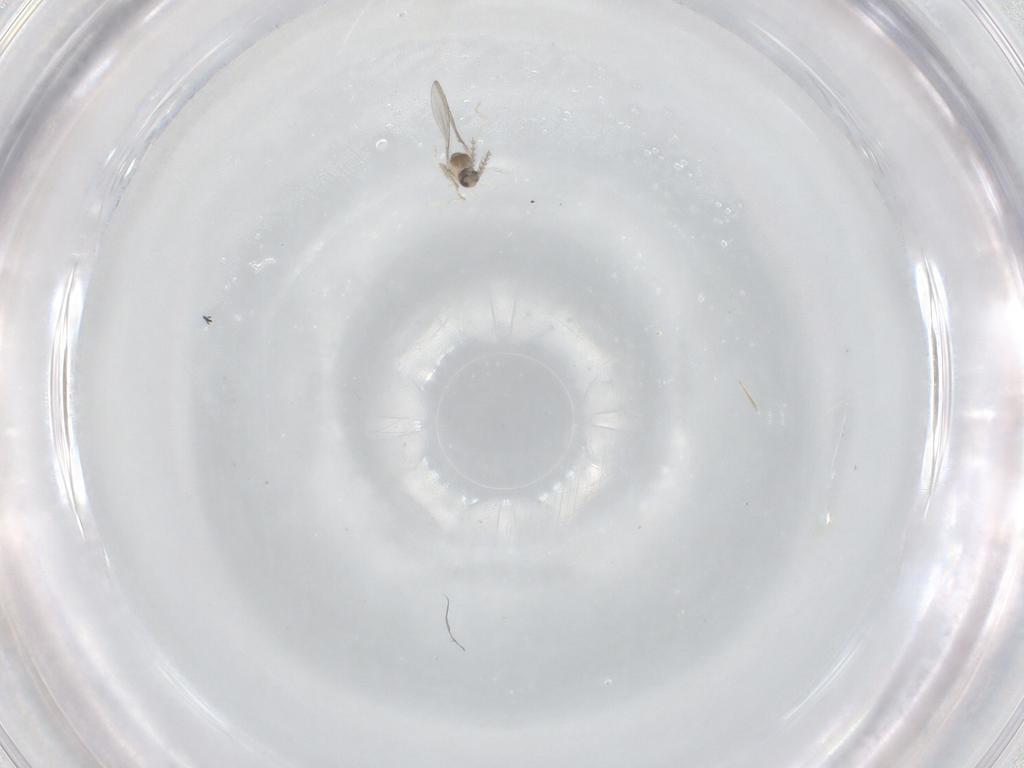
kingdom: Animalia
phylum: Arthropoda
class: Insecta
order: Diptera
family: Cecidomyiidae
